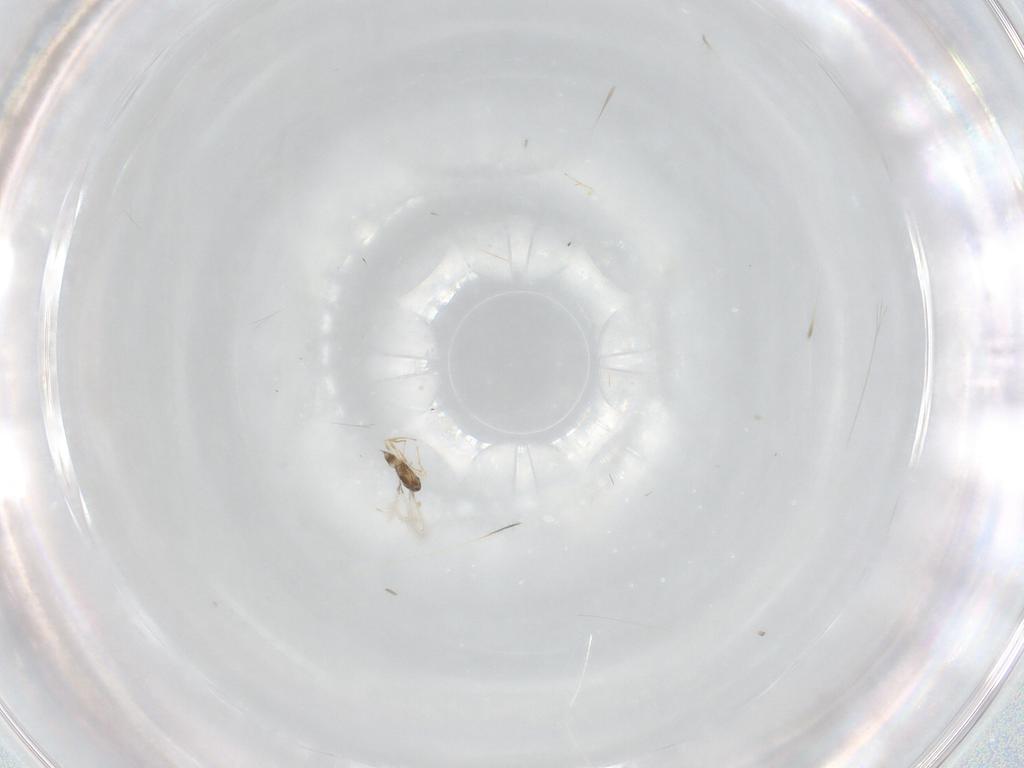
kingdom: Animalia
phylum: Arthropoda
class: Insecta
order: Hymenoptera
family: Mymaridae
